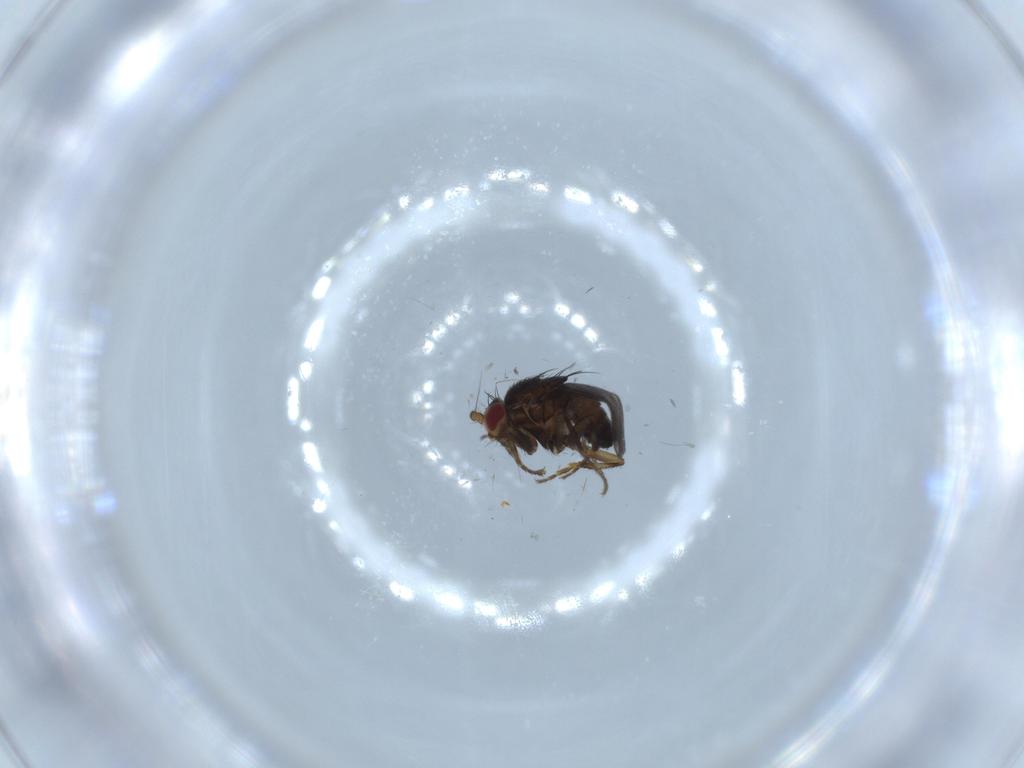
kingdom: Animalia
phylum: Arthropoda
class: Insecta
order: Diptera
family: Sphaeroceridae
